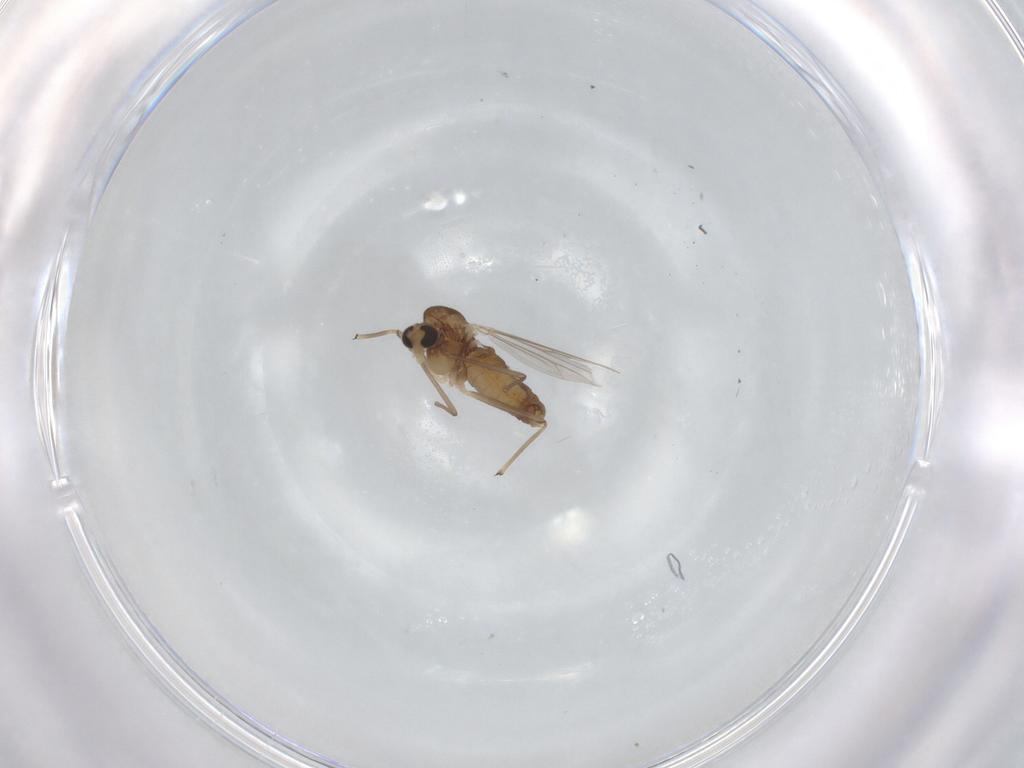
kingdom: Animalia
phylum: Arthropoda
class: Insecta
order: Diptera
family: Chironomidae
